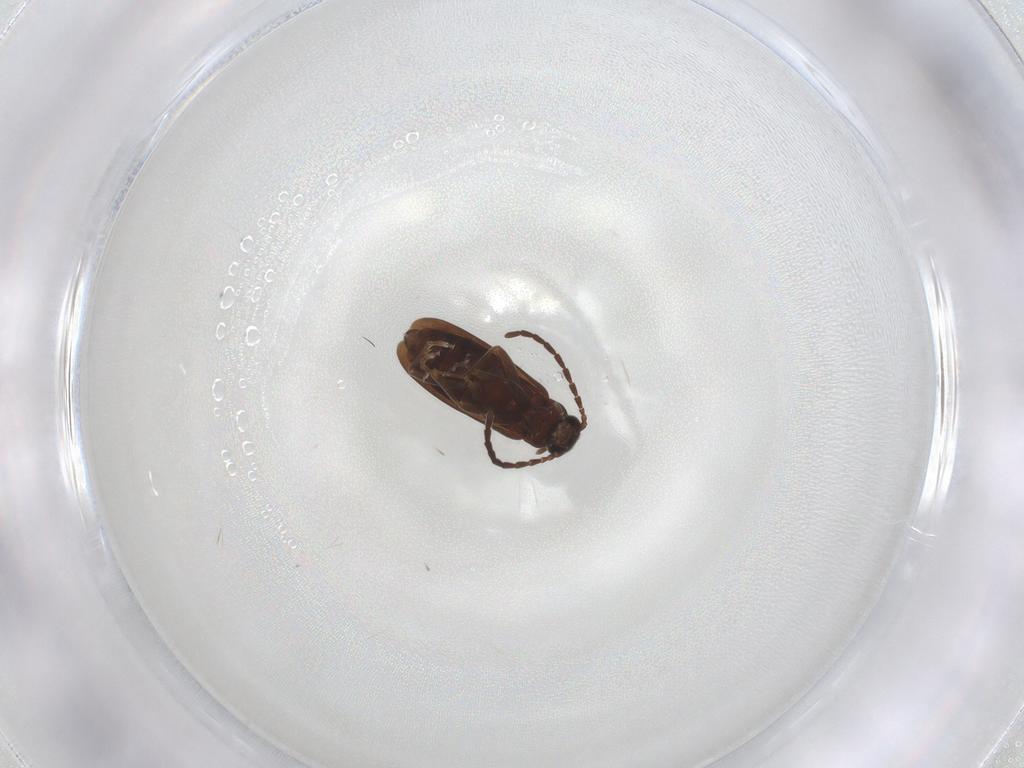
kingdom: Animalia
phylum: Arthropoda
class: Insecta
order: Coleoptera
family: Scraptiidae
